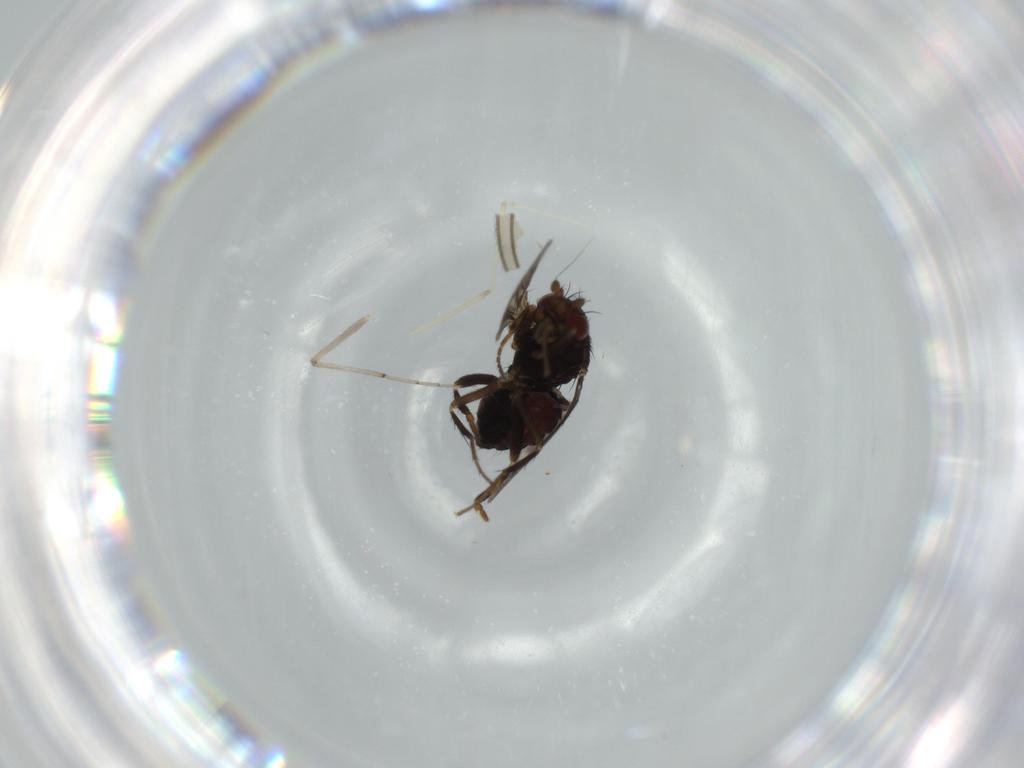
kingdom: Animalia
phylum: Arthropoda
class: Insecta
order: Diptera
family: Sphaeroceridae
